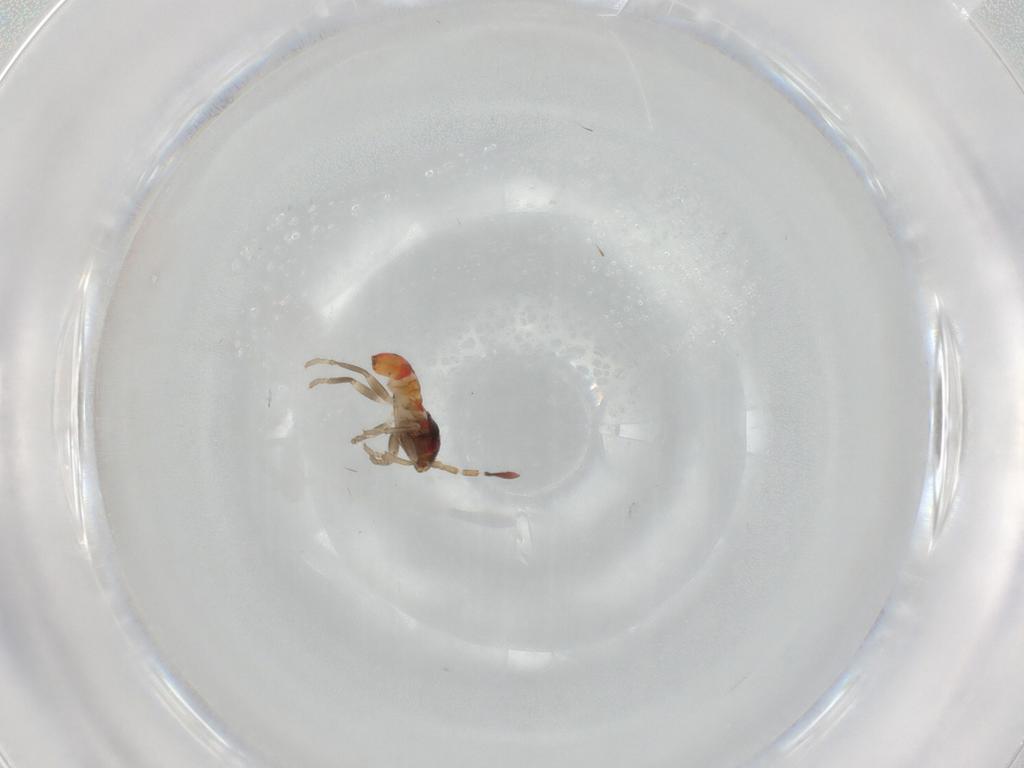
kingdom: Animalia
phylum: Arthropoda
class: Insecta
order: Hemiptera
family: Rhyparochromidae
